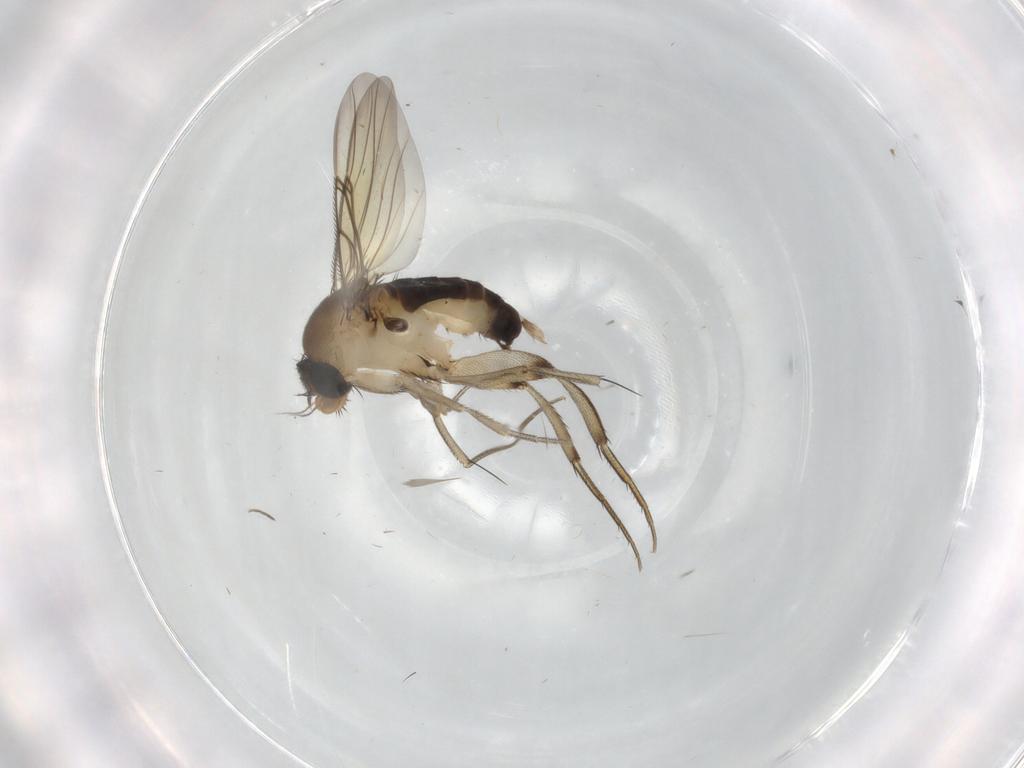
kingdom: Animalia
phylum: Arthropoda
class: Insecta
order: Diptera
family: Phoridae
